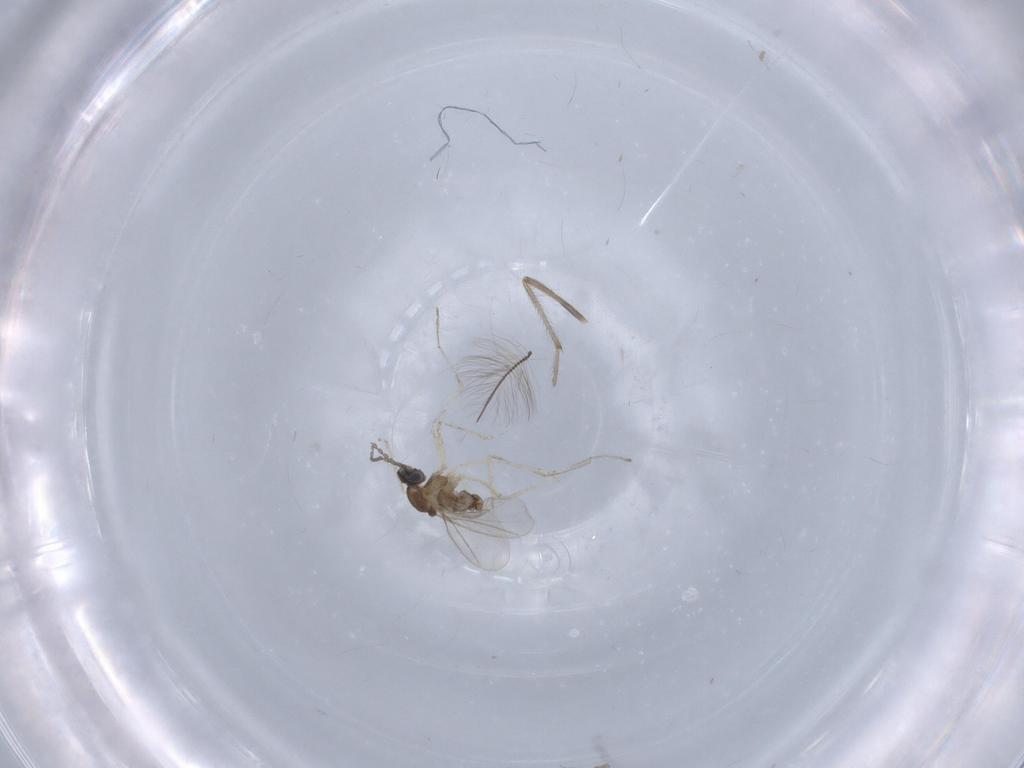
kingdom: Animalia
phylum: Arthropoda
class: Insecta
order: Diptera
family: Cecidomyiidae
